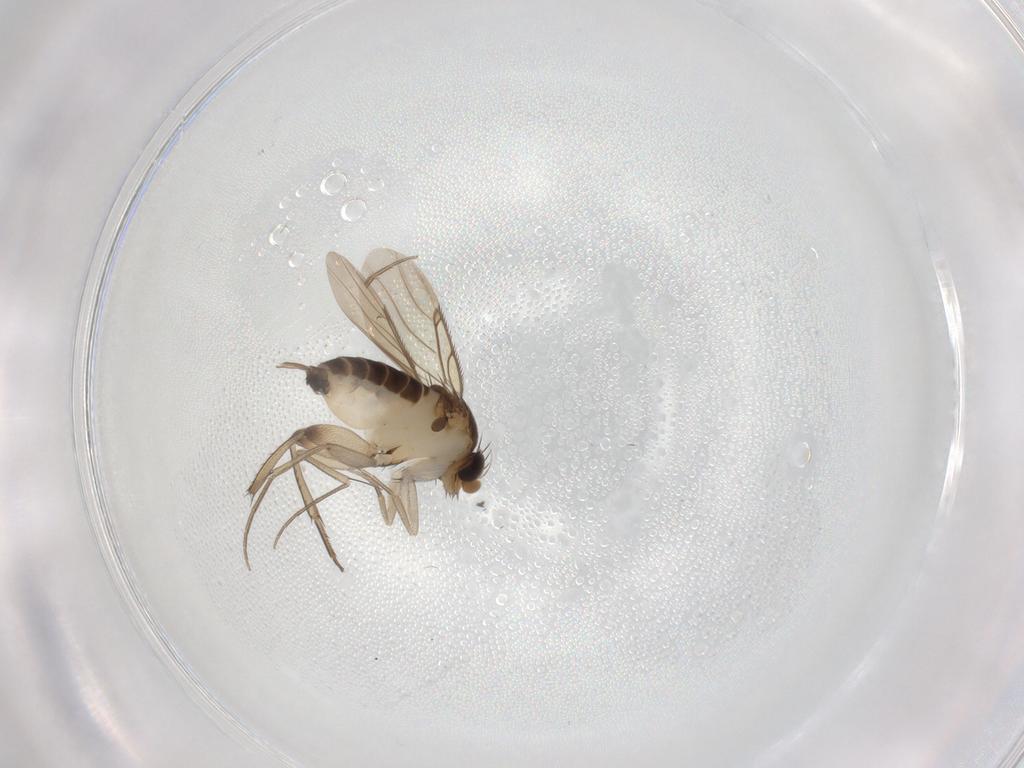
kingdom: Animalia
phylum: Arthropoda
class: Insecta
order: Diptera
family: Phoridae
